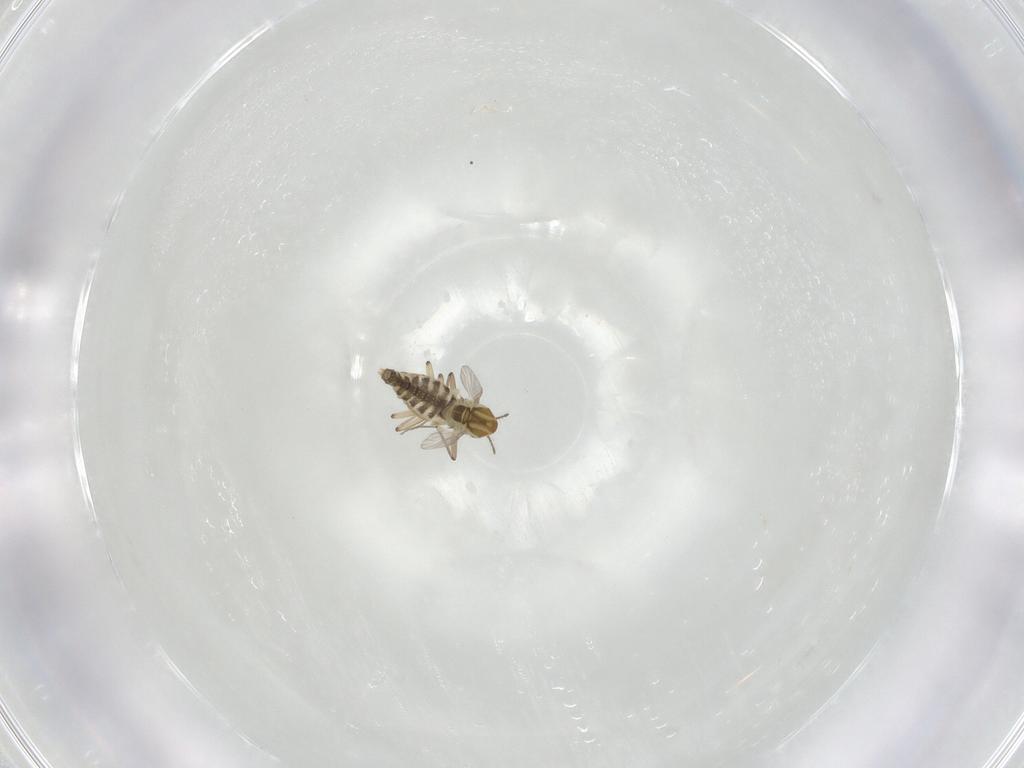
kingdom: Animalia
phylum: Arthropoda
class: Insecta
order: Diptera
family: Chironomidae
